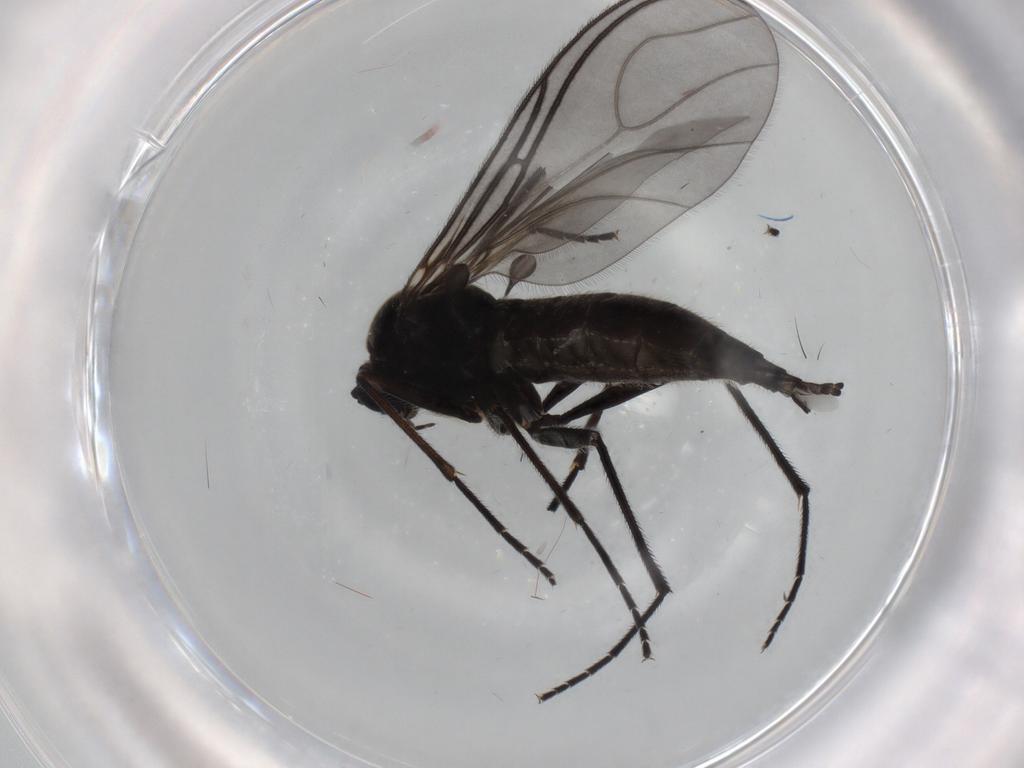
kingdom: Animalia
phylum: Arthropoda
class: Insecta
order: Diptera
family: Sciaridae
